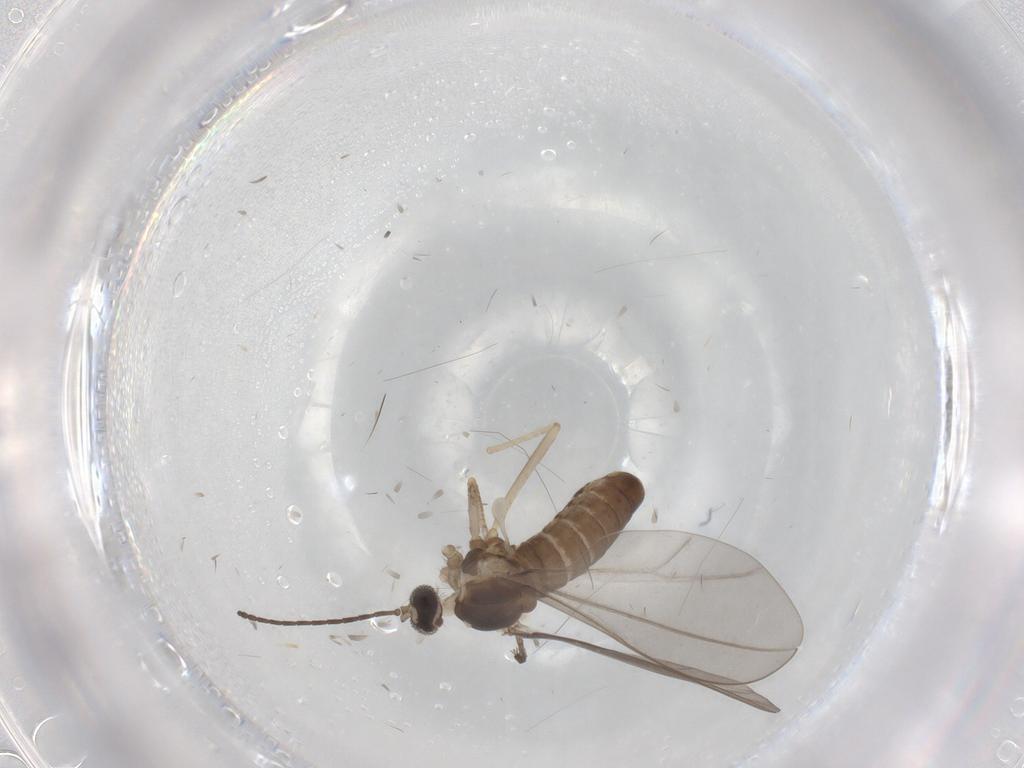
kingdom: Animalia
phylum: Arthropoda
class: Insecta
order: Diptera
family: Cecidomyiidae
